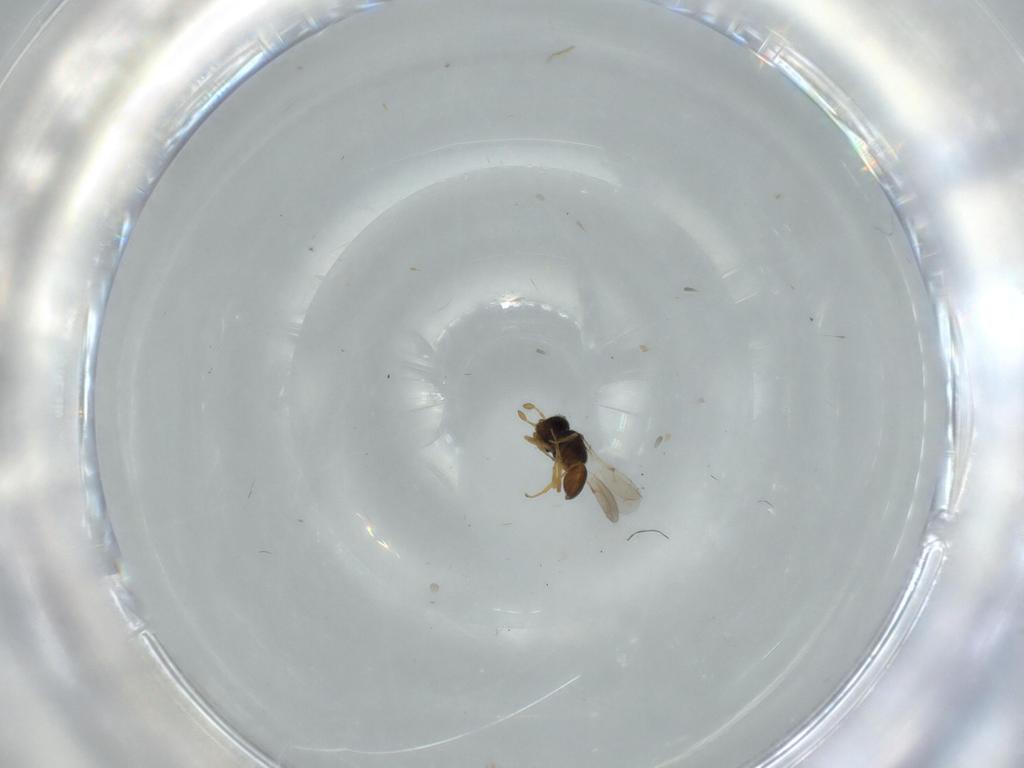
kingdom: Animalia
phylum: Arthropoda
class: Insecta
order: Hymenoptera
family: Scelionidae
